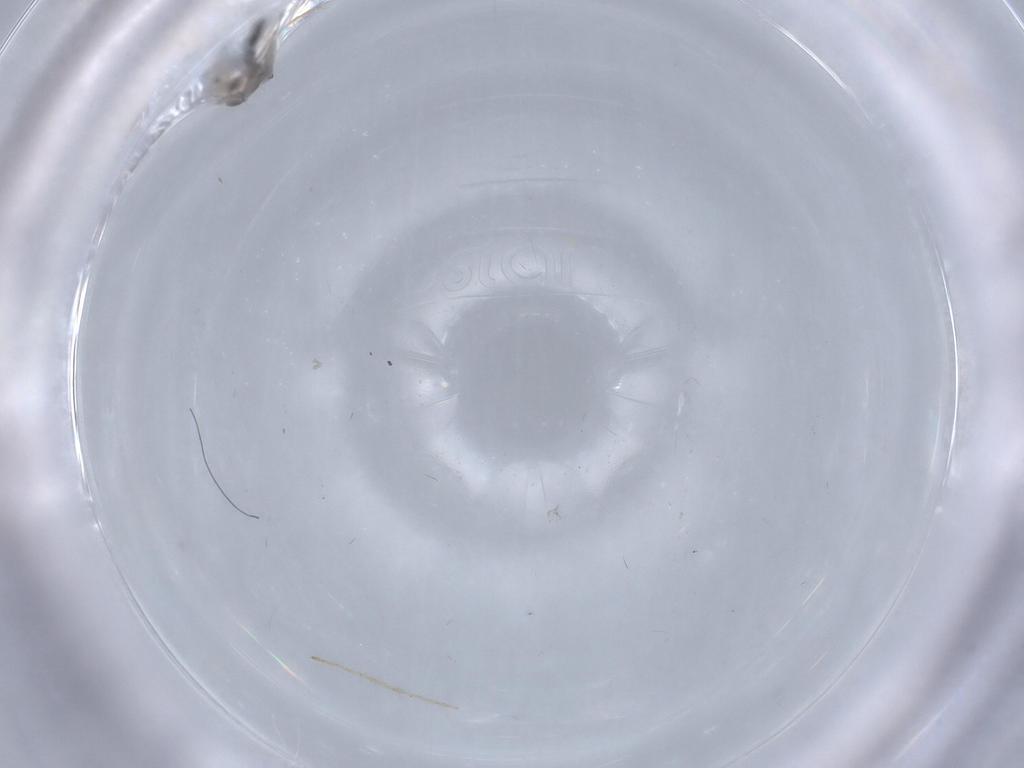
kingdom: Animalia
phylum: Arthropoda
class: Insecta
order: Diptera
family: Chironomidae
